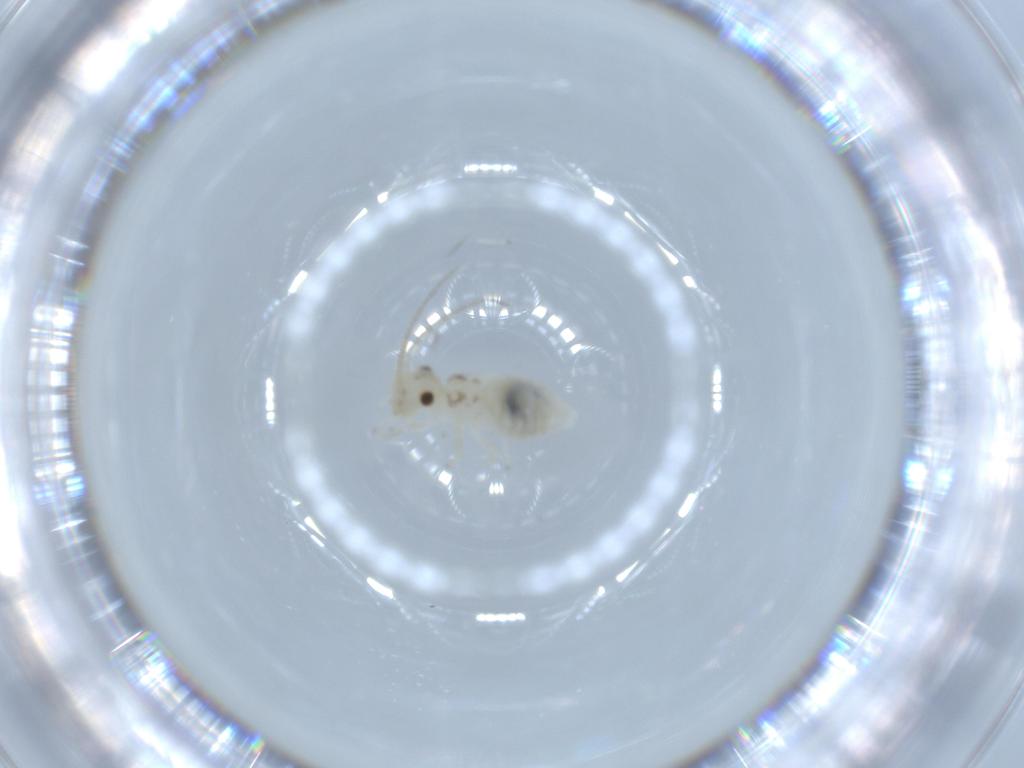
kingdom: Animalia
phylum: Arthropoda
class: Insecta
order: Psocodea
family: Caeciliusidae
